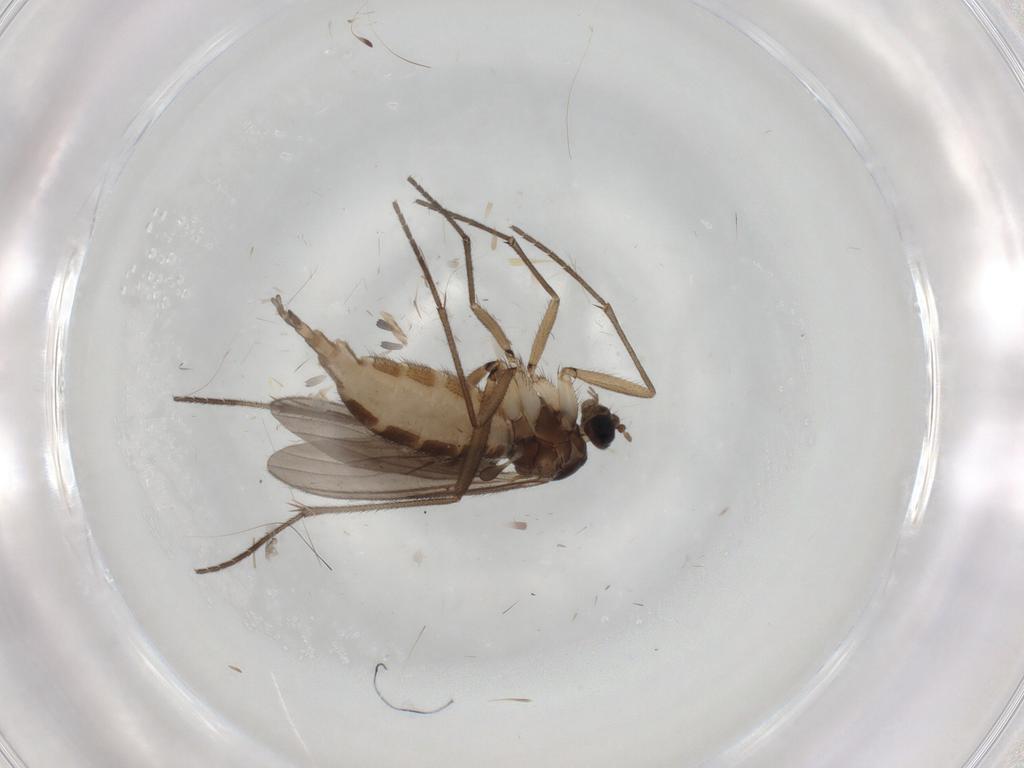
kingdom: Animalia
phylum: Arthropoda
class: Insecta
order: Diptera
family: Sciaridae
